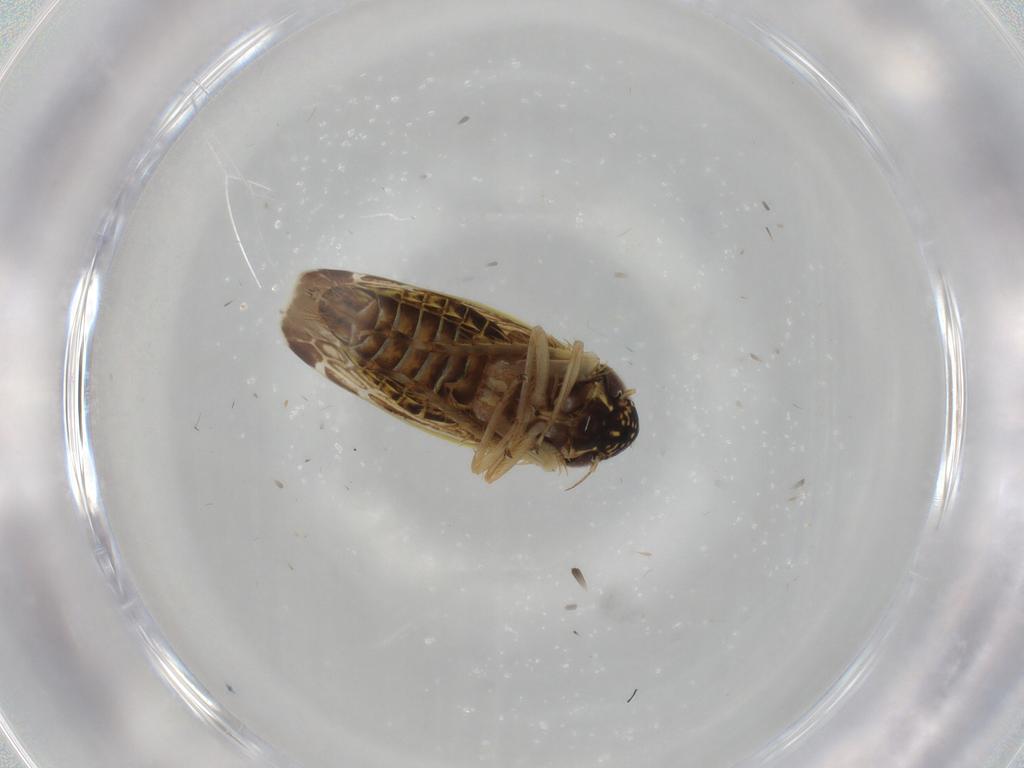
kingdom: Animalia
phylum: Arthropoda
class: Insecta
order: Hemiptera
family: Cicadellidae
